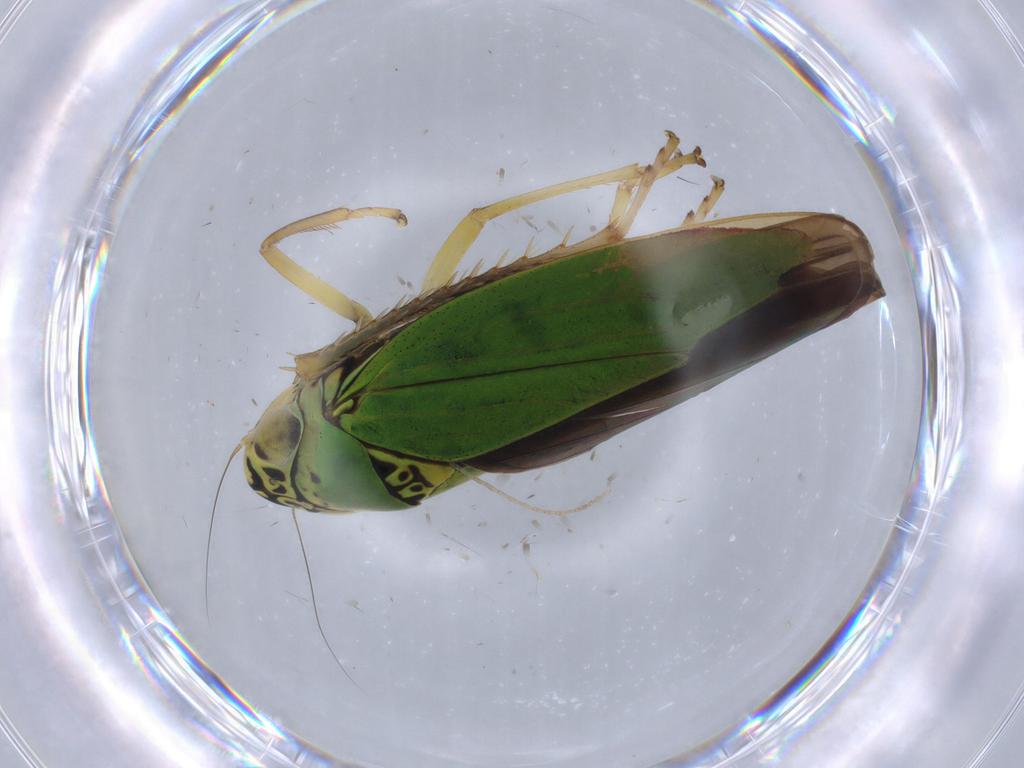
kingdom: Animalia
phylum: Arthropoda
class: Insecta
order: Hemiptera
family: Cicadellidae
